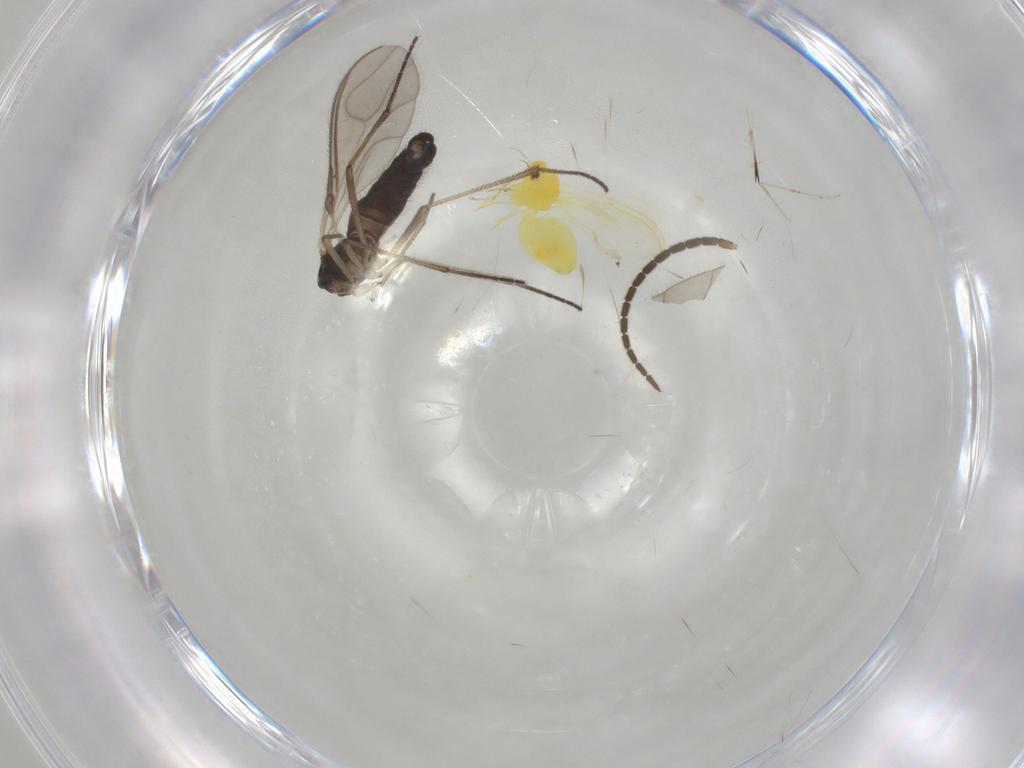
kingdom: Animalia
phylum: Arthropoda
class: Insecta
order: Hemiptera
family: Aleyrodidae
